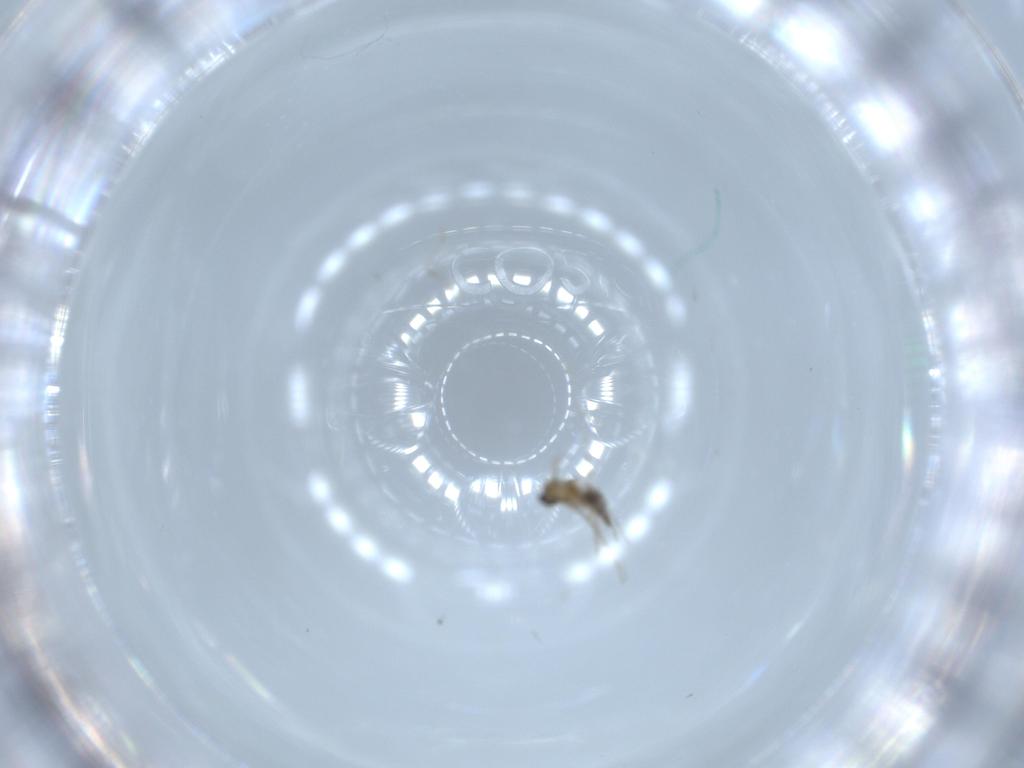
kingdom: Animalia
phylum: Arthropoda
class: Insecta
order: Diptera
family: Cecidomyiidae
